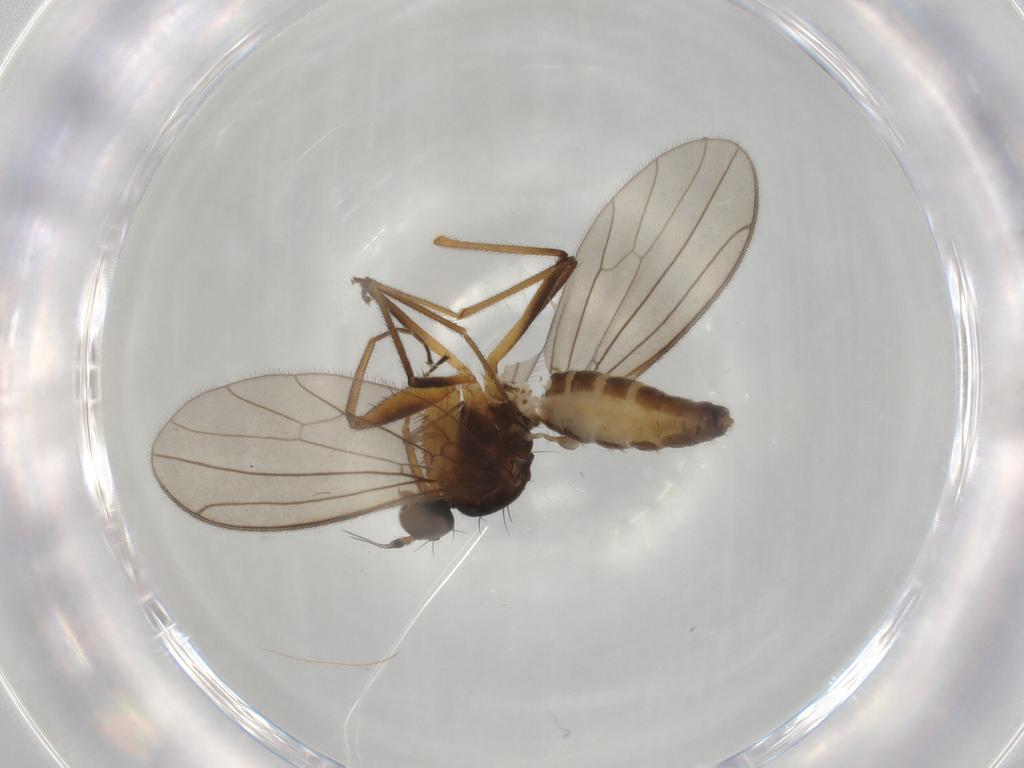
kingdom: Animalia
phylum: Arthropoda
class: Insecta
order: Diptera
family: Empididae
